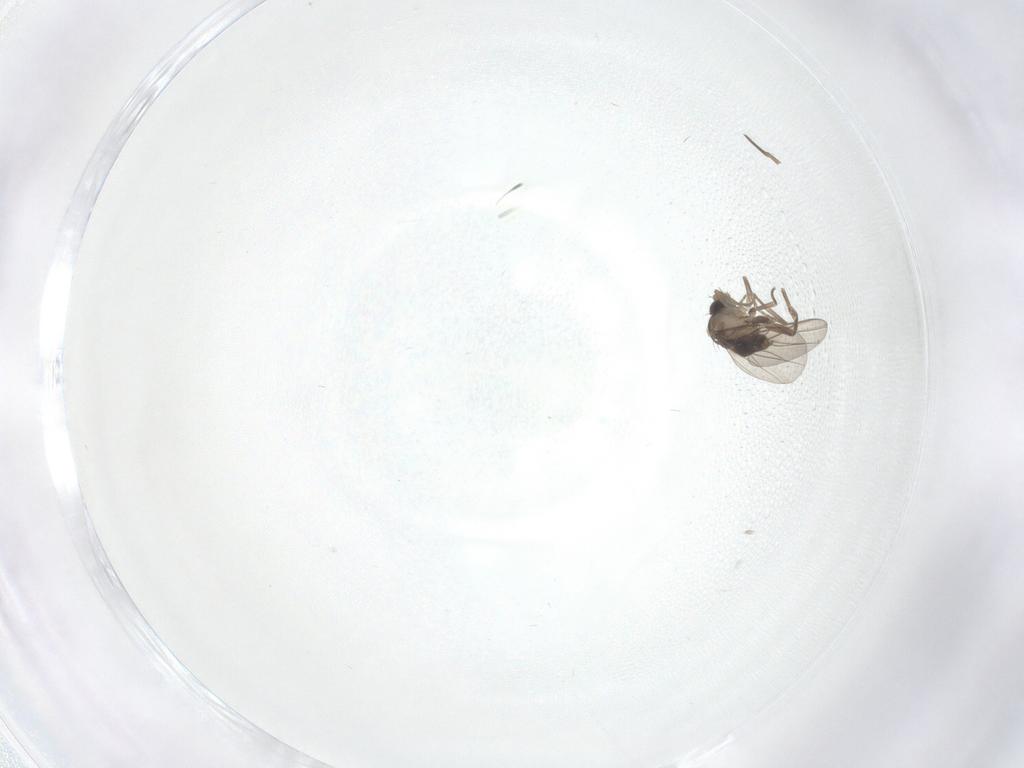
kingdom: Animalia
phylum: Arthropoda
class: Insecta
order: Diptera
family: Phoridae
